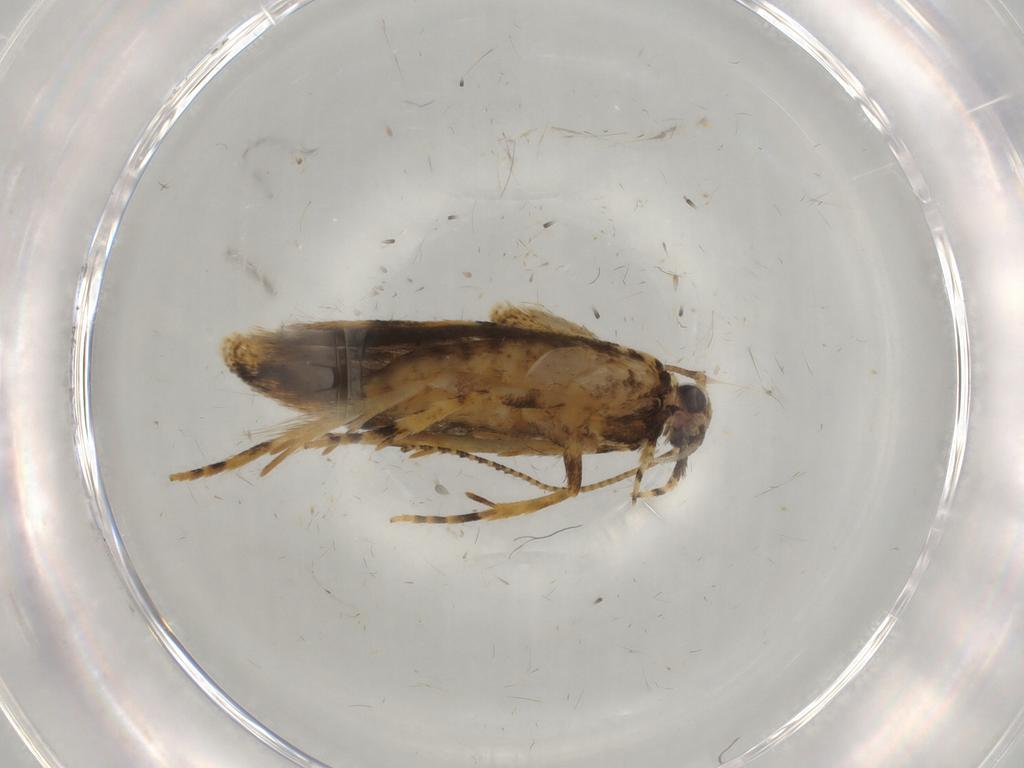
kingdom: Animalia
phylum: Arthropoda
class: Insecta
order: Lepidoptera
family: Gelechiidae
